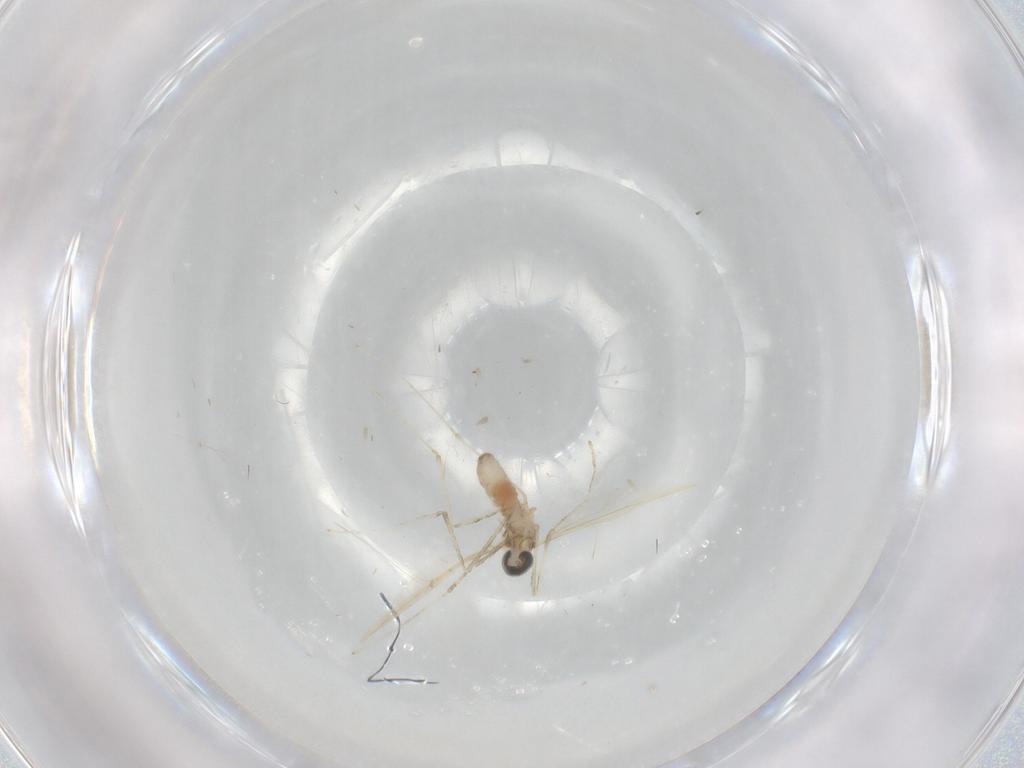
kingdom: Animalia
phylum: Arthropoda
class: Insecta
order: Diptera
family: Cecidomyiidae
